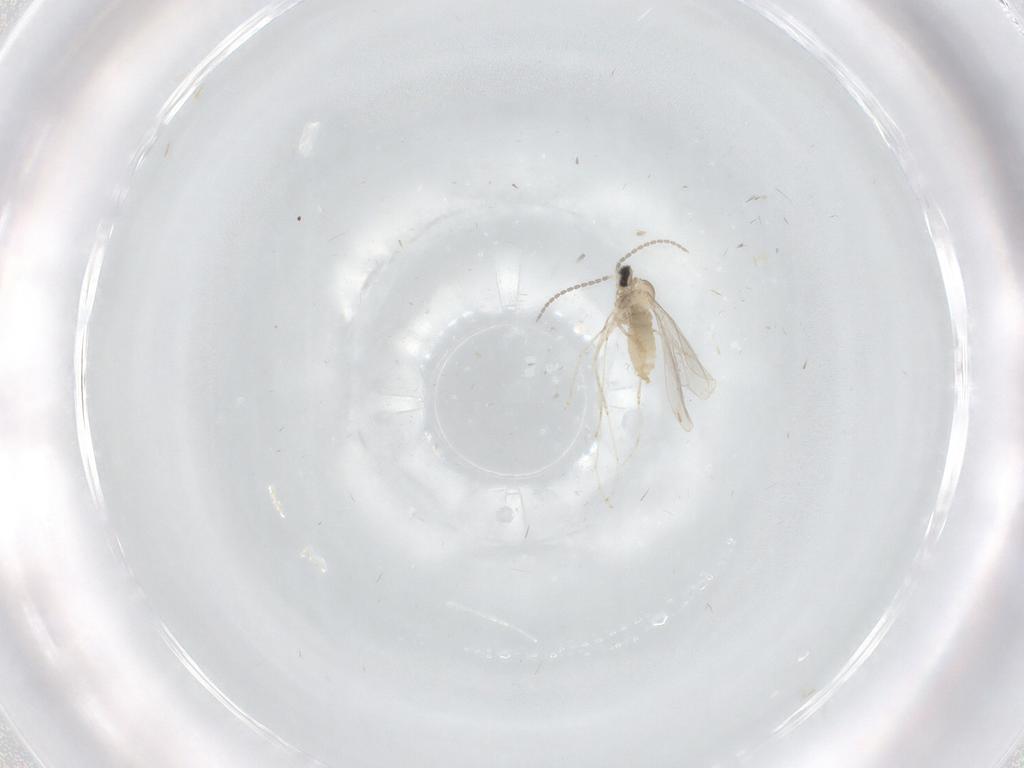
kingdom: Animalia
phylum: Arthropoda
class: Insecta
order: Diptera
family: Cecidomyiidae
